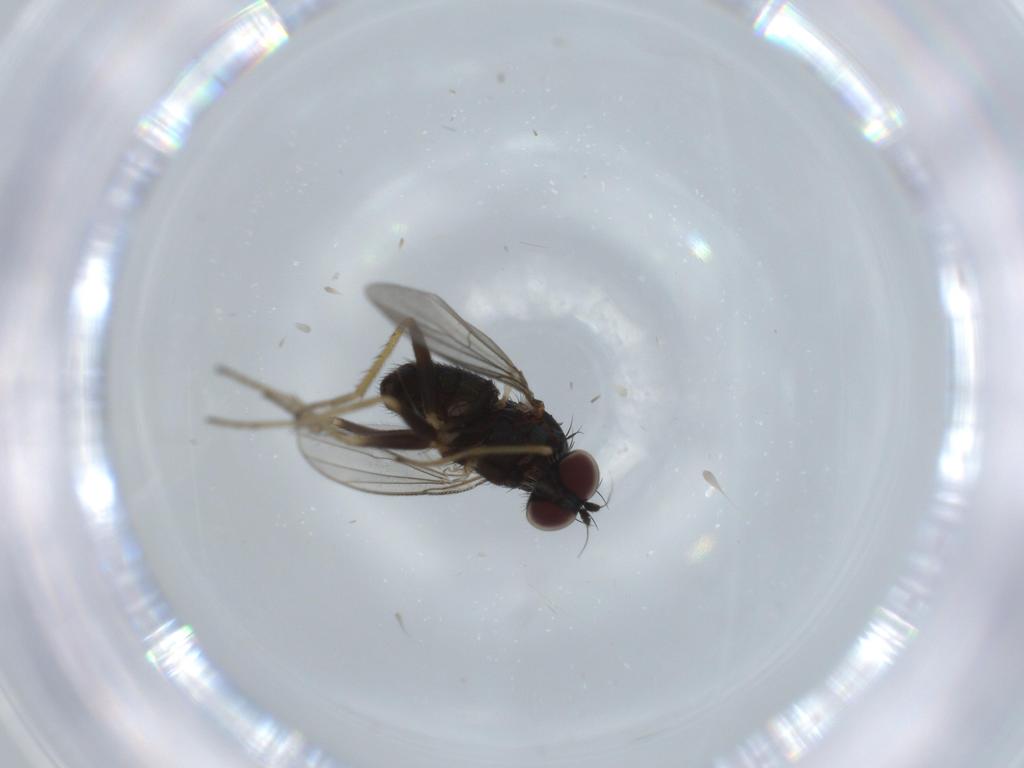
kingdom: Animalia
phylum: Arthropoda
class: Insecta
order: Diptera
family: Sciaridae
